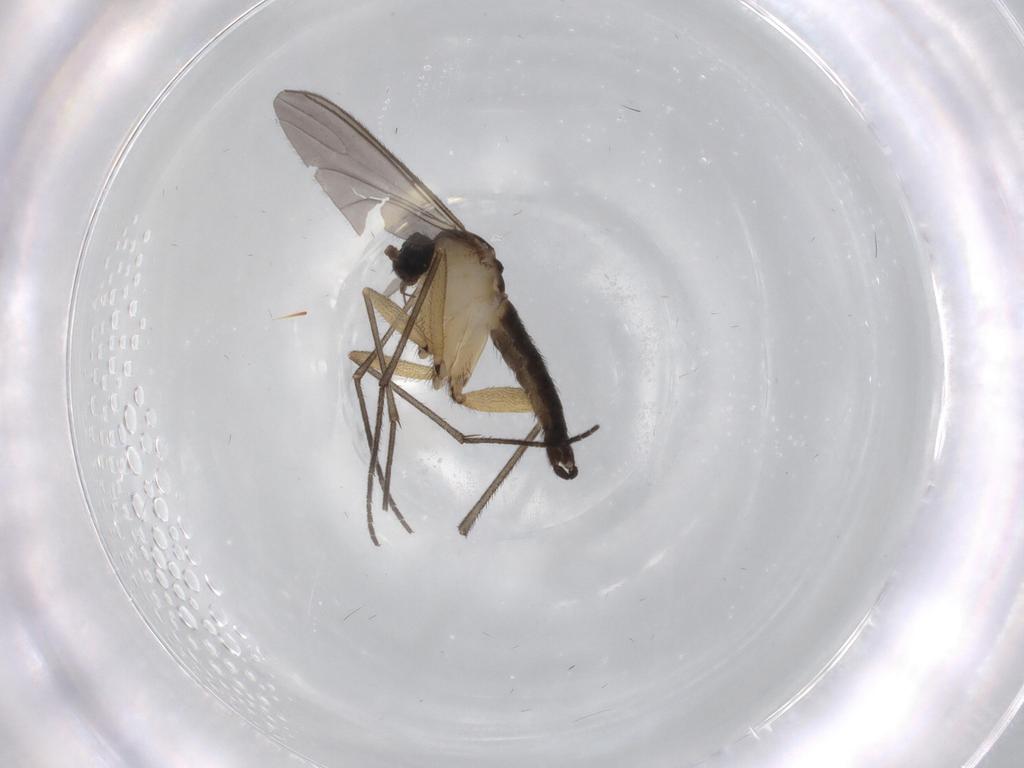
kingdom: Animalia
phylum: Arthropoda
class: Insecta
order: Diptera
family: Sciaridae
